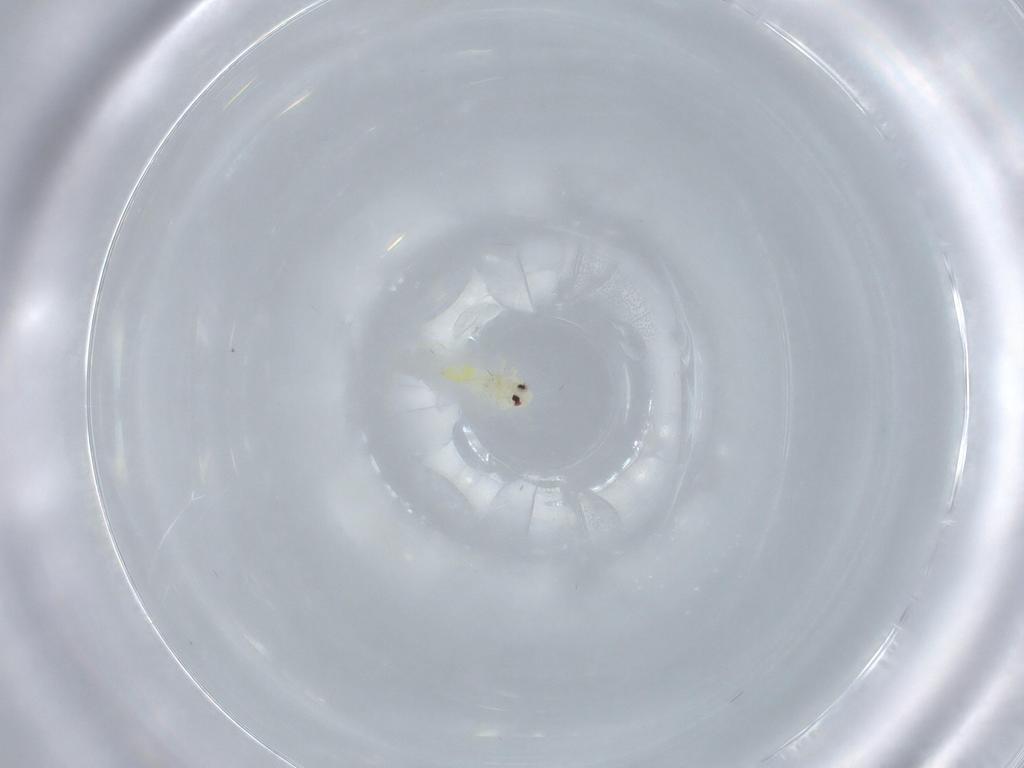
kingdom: Animalia
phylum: Arthropoda
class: Insecta
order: Hemiptera
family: Aleyrodidae
